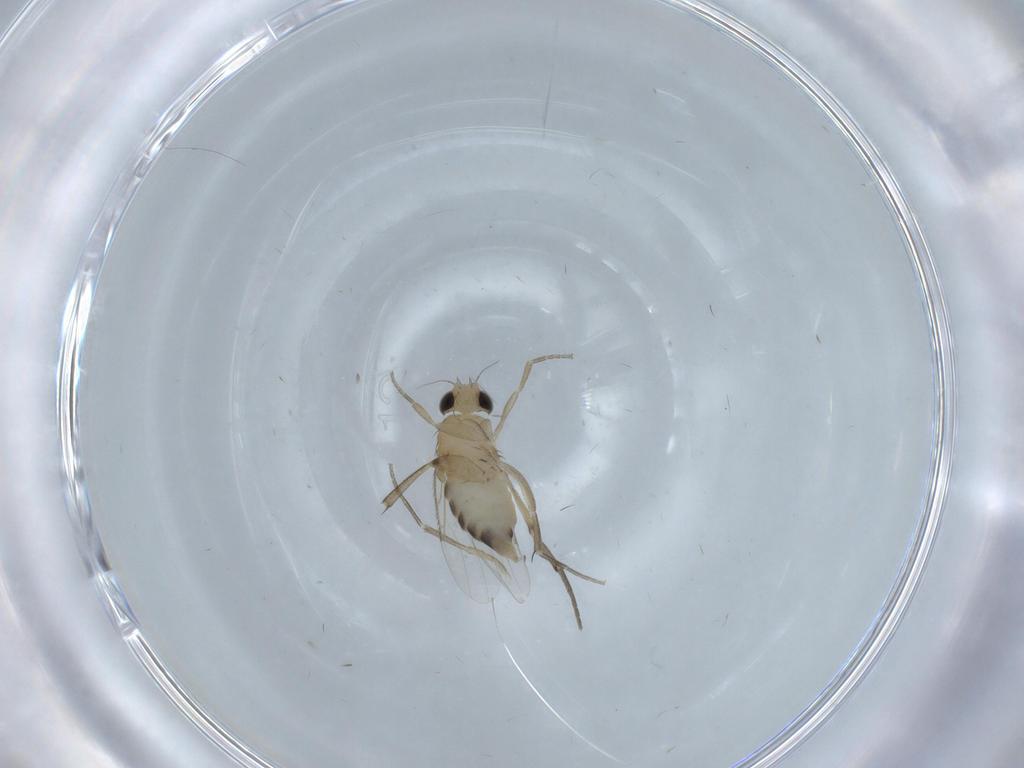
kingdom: Animalia
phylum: Arthropoda
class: Insecta
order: Diptera
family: Phoridae
